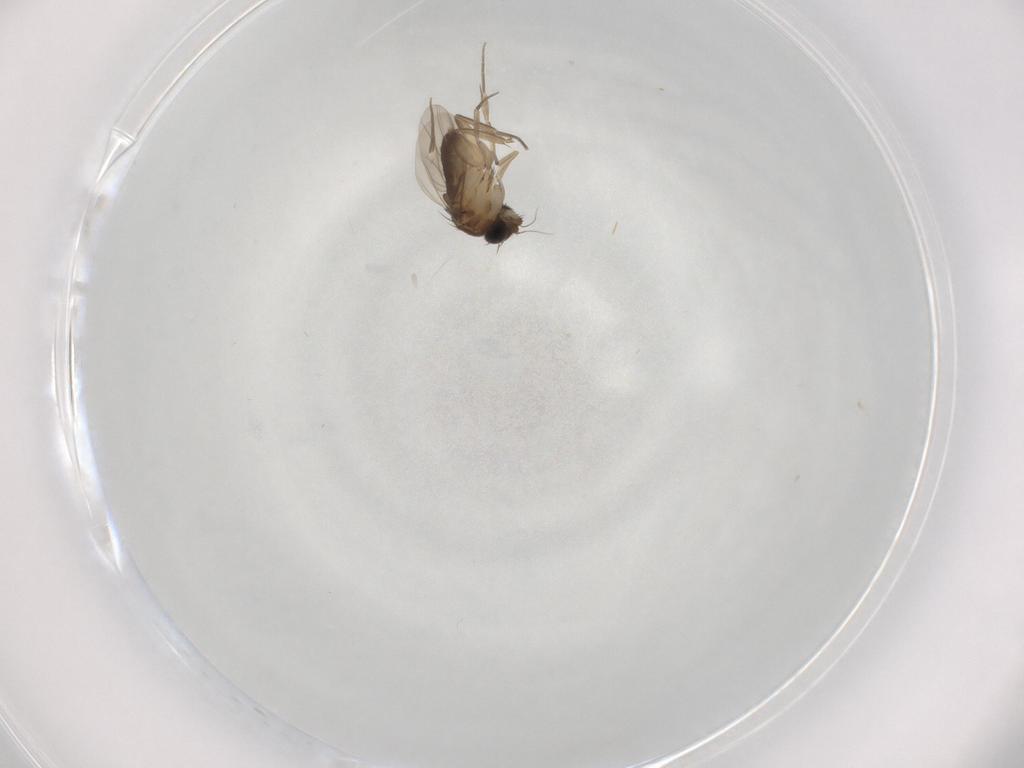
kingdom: Animalia
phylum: Arthropoda
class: Insecta
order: Diptera
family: Phoridae
